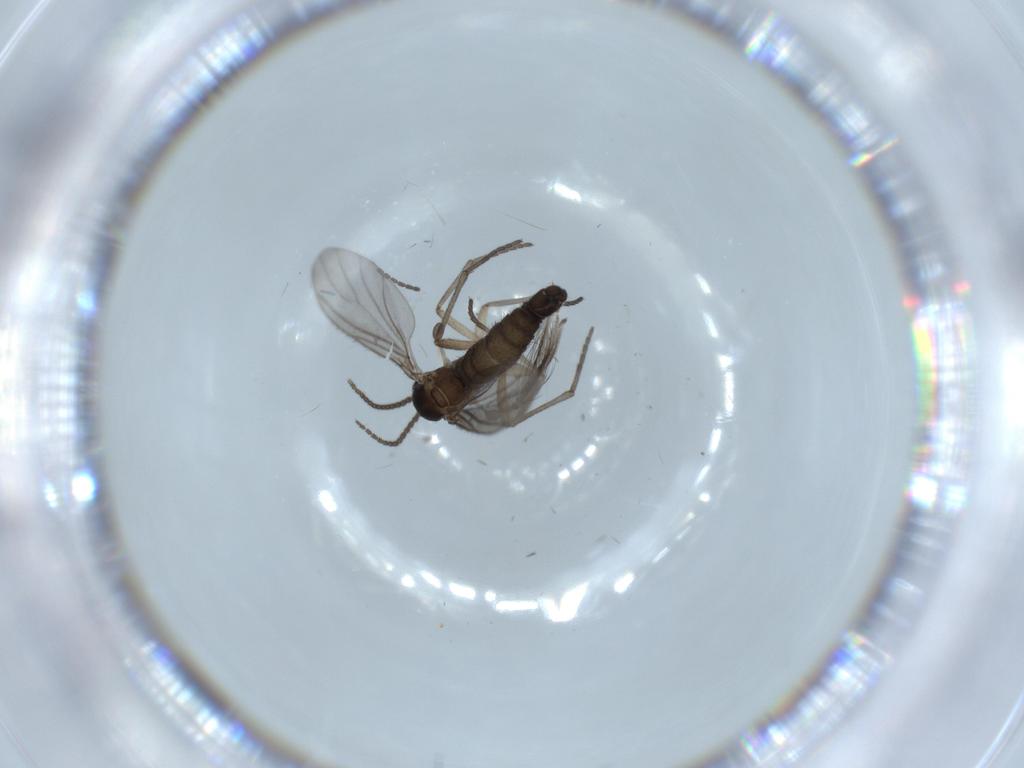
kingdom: Animalia
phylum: Arthropoda
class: Insecta
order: Diptera
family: Sciaridae
